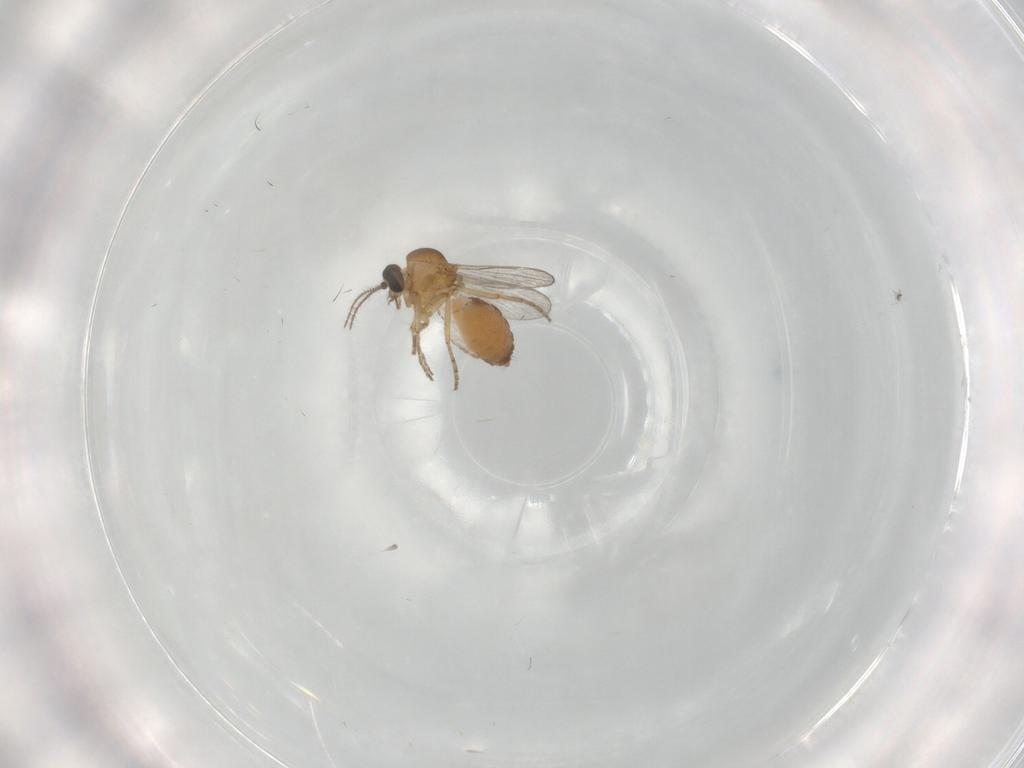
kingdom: Animalia
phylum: Arthropoda
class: Insecta
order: Diptera
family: Ceratopogonidae
